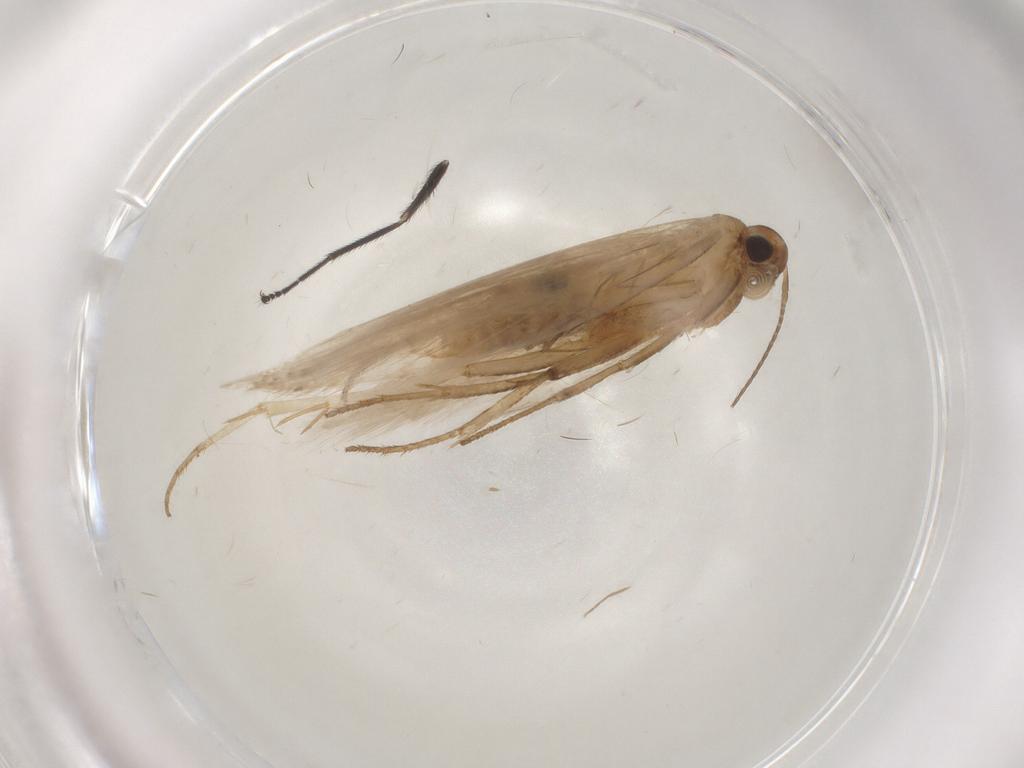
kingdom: Animalia
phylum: Arthropoda
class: Insecta
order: Lepidoptera
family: Gelechiidae
